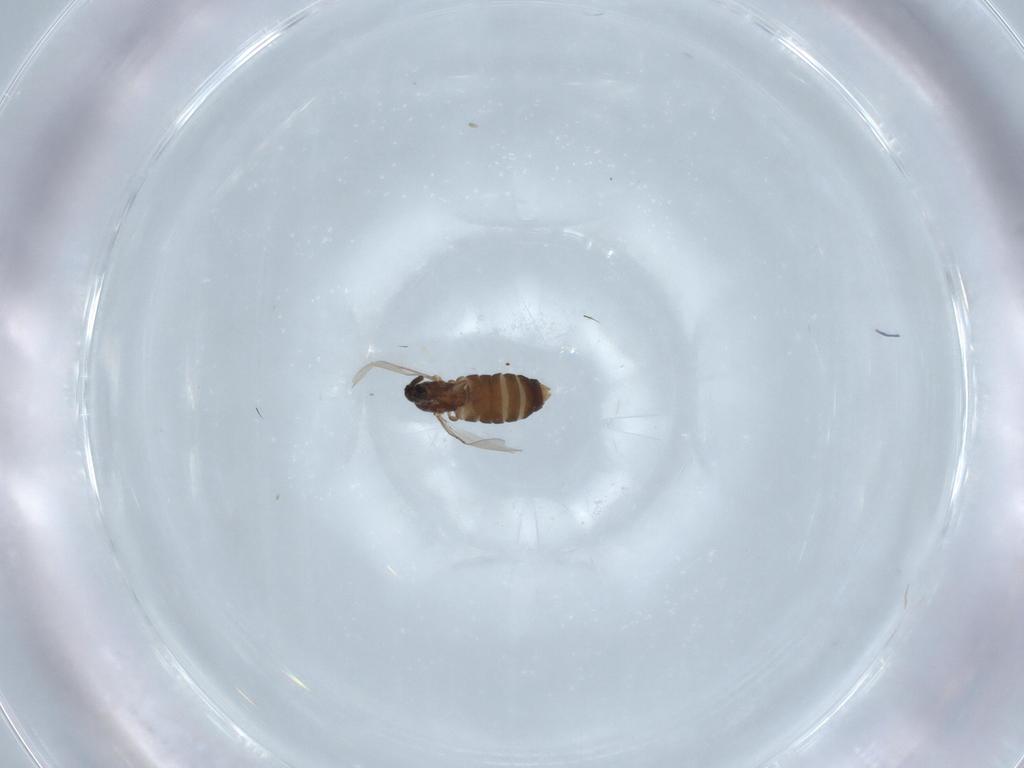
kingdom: Animalia
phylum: Arthropoda
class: Insecta
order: Diptera
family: Scatopsidae
